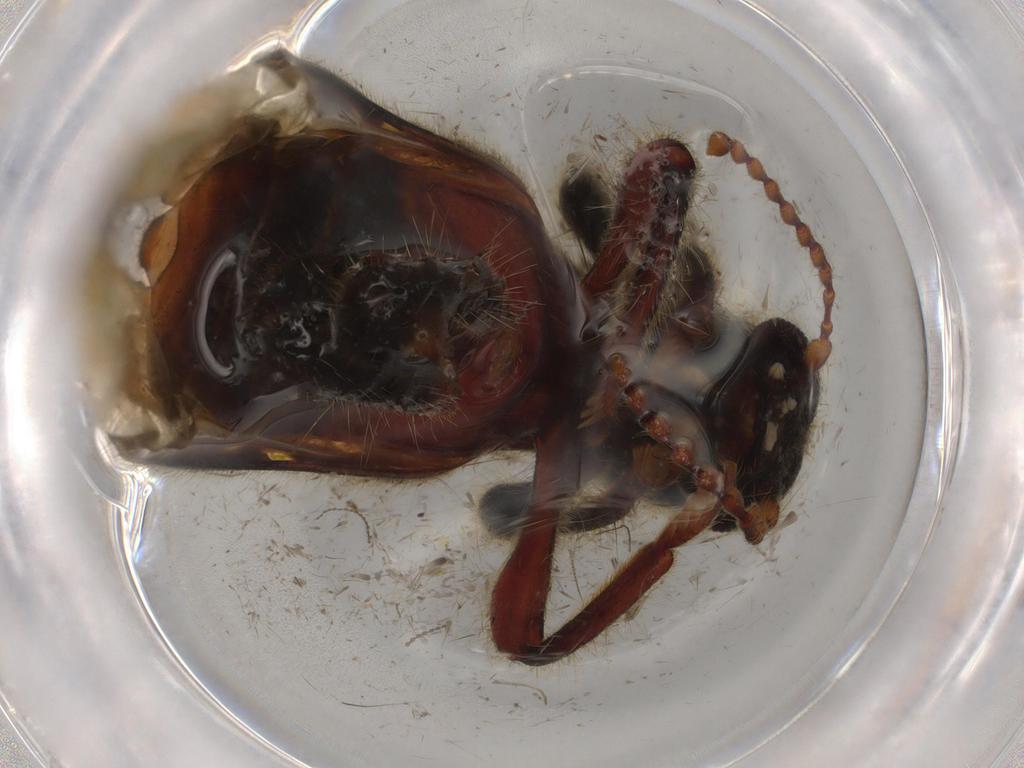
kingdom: Animalia
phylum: Arthropoda
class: Insecta
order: Coleoptera
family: Cleridae
